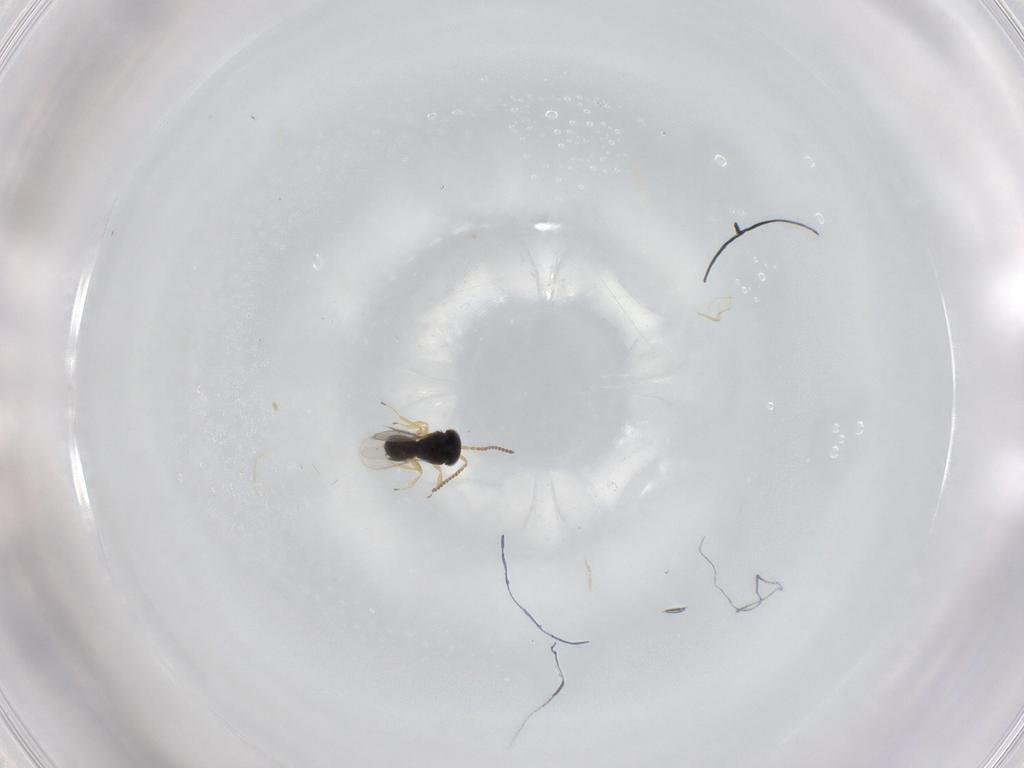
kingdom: Animalia
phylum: Arthropoda
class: Insecta
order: Hymenoptera
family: Scelionidae
